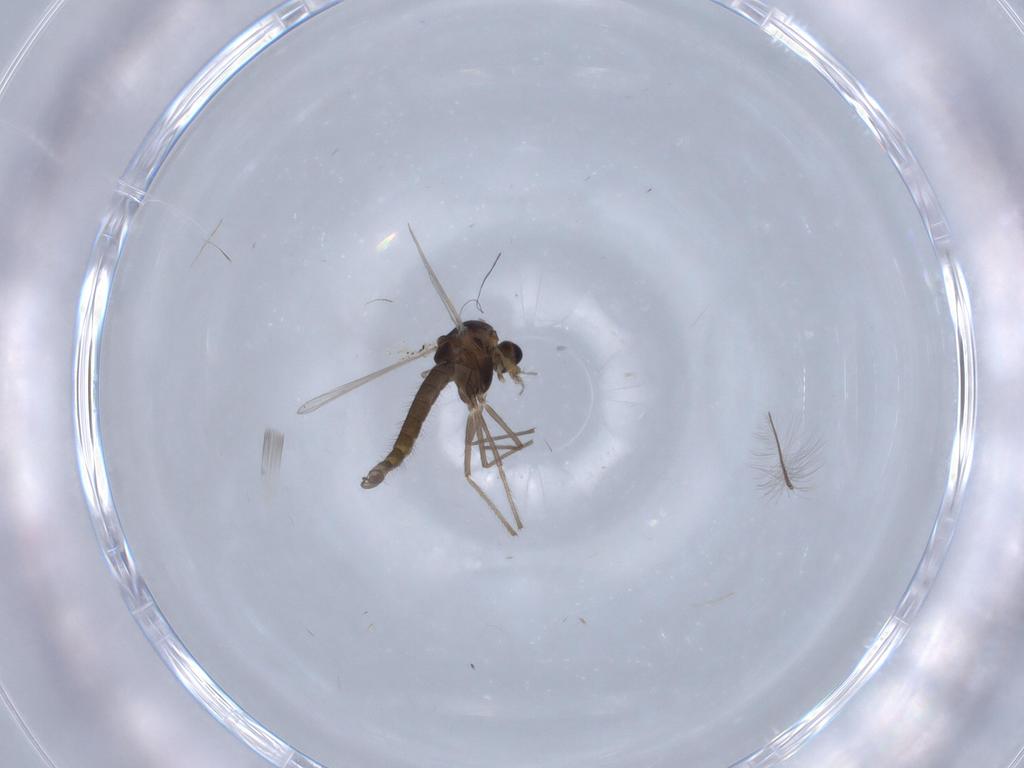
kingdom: Animalia
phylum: Arthropoda
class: Insecta
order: Diptera
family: Chironomidae
